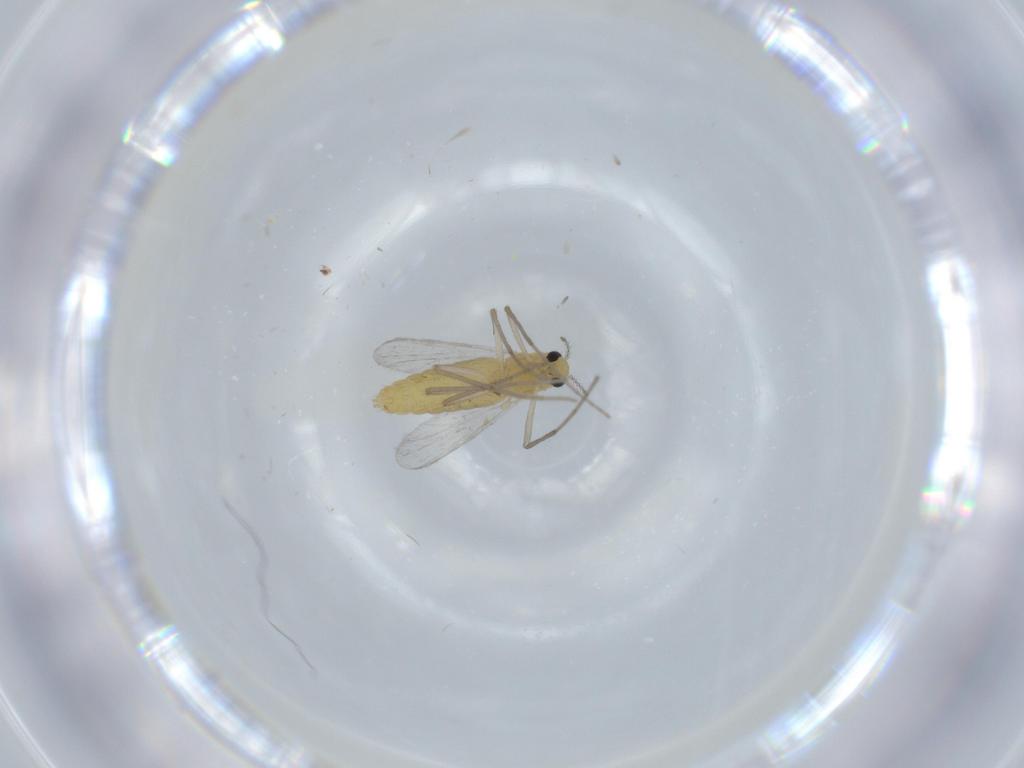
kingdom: Animalia
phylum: Arthropoda
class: Insecta
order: Diptera
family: Chironomidae
